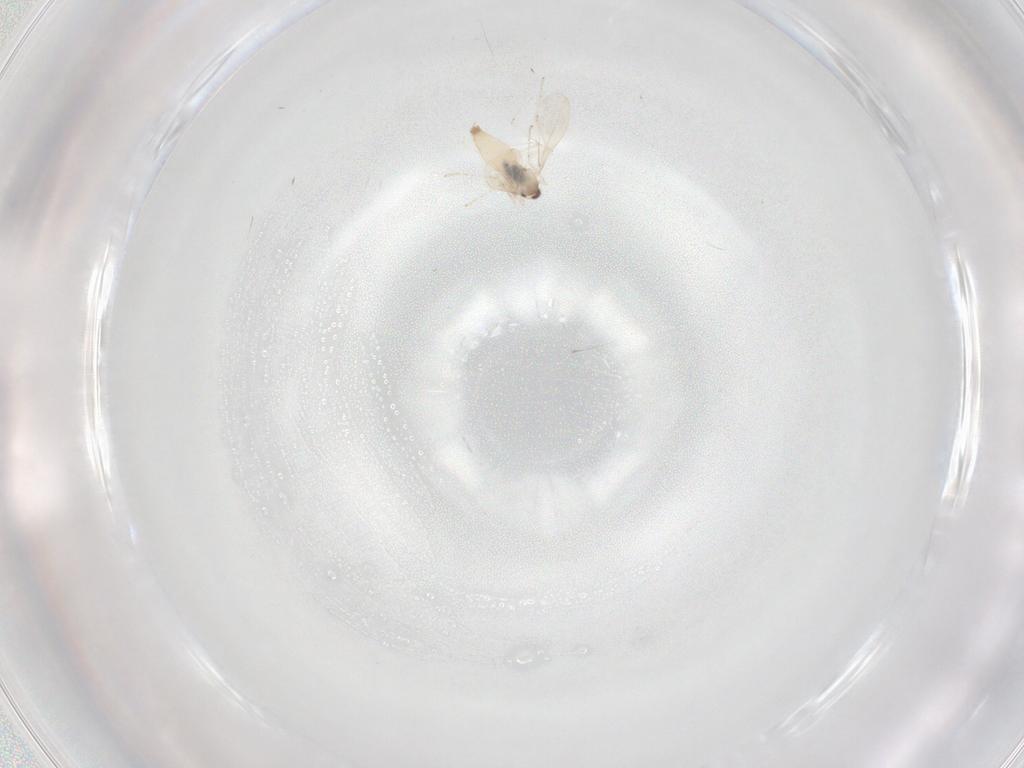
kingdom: Animalia
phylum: Arthropoda
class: Insecta
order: Diptera
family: Cecidomyiidae
